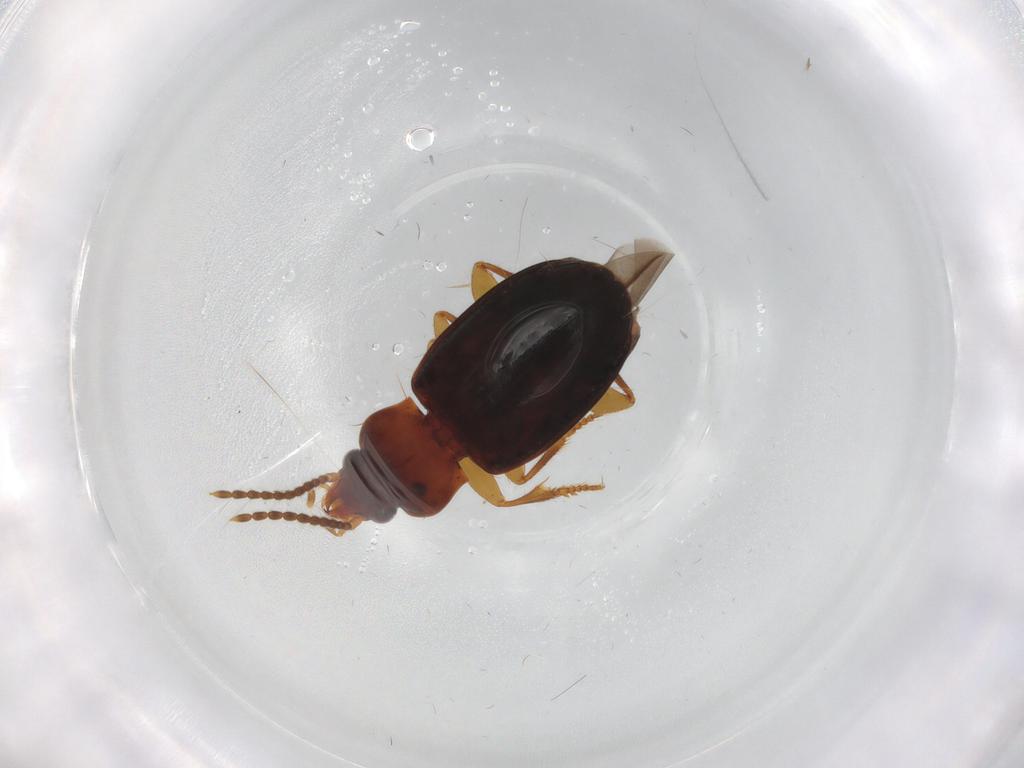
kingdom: Animalia
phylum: Arthropoda
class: Insecta
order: Coleoptera
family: Carabidae
